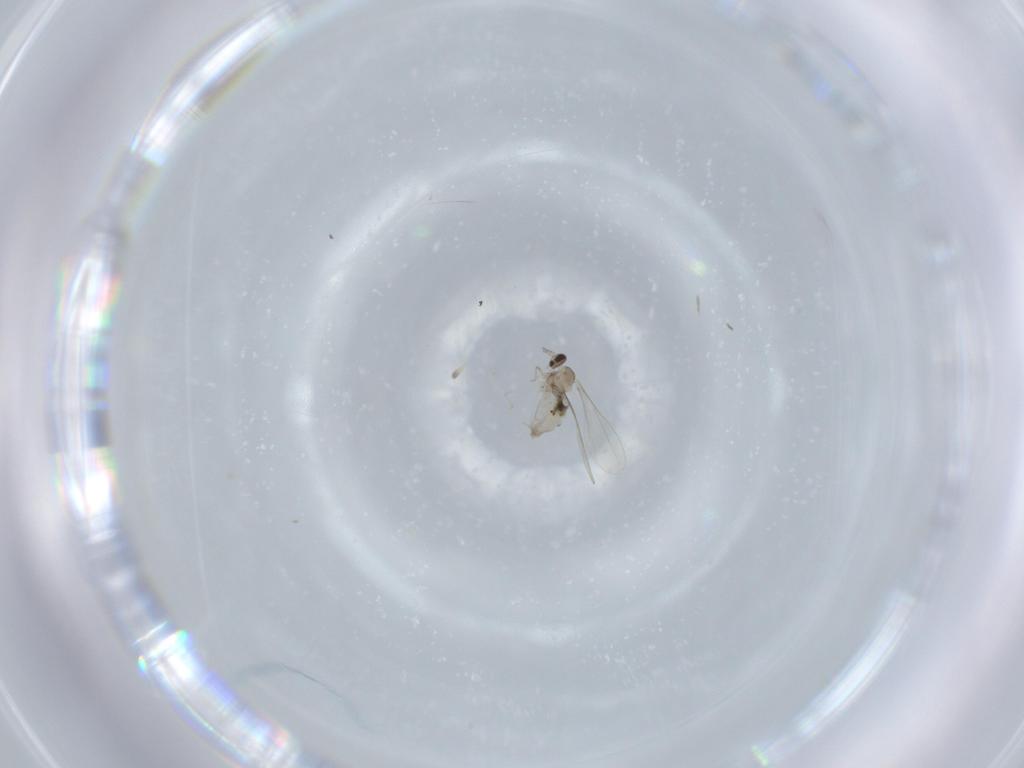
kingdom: Animalia
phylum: Arthropoda
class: Insecta
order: Diptera
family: Cecidomyiidae
